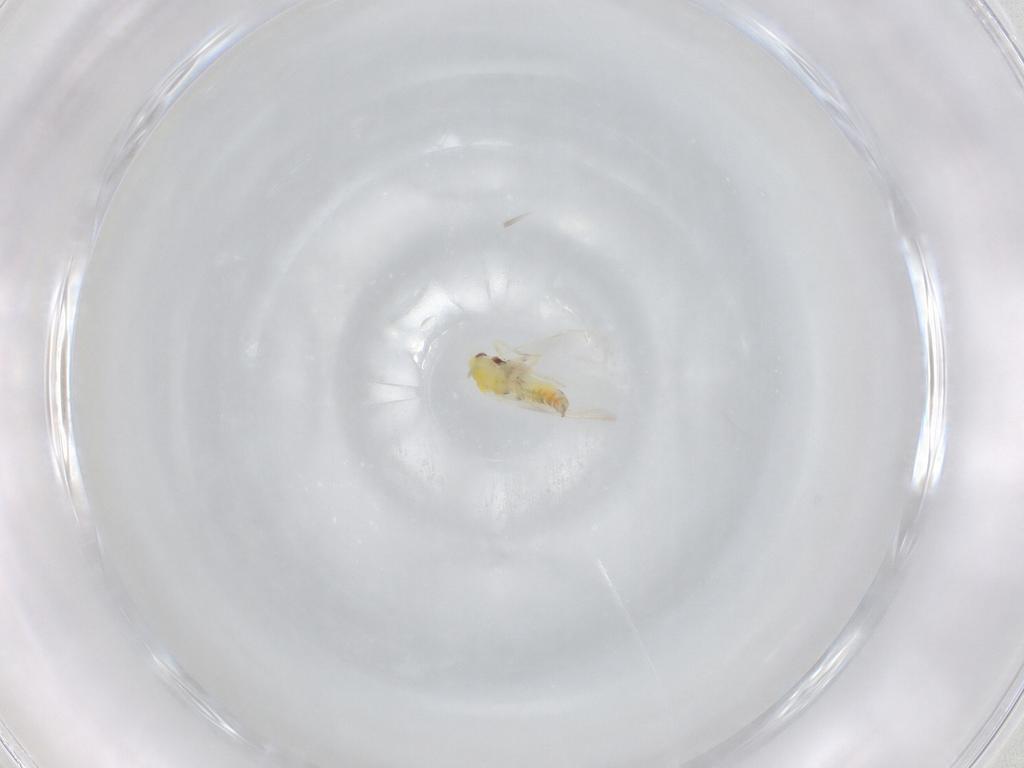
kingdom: Animalia
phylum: Arthropoda
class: Insecta
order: Hemiptera
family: Aleyrodidae
